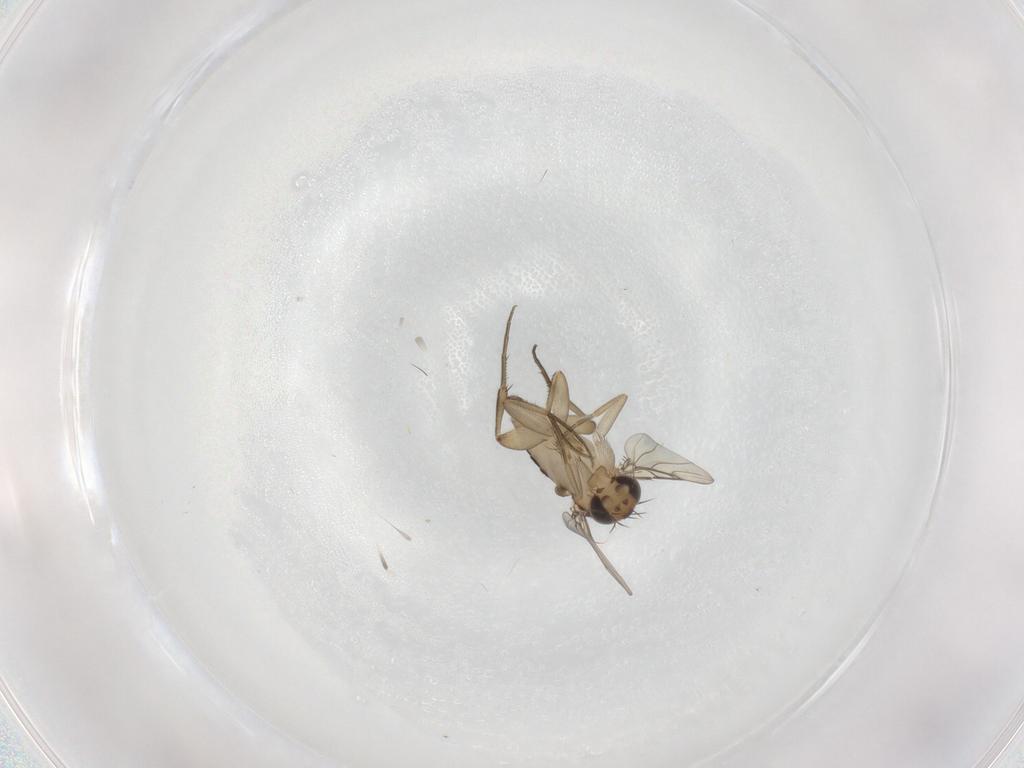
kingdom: Animalia
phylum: Arthropoda
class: Insecta
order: Diptera
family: Phoridae
